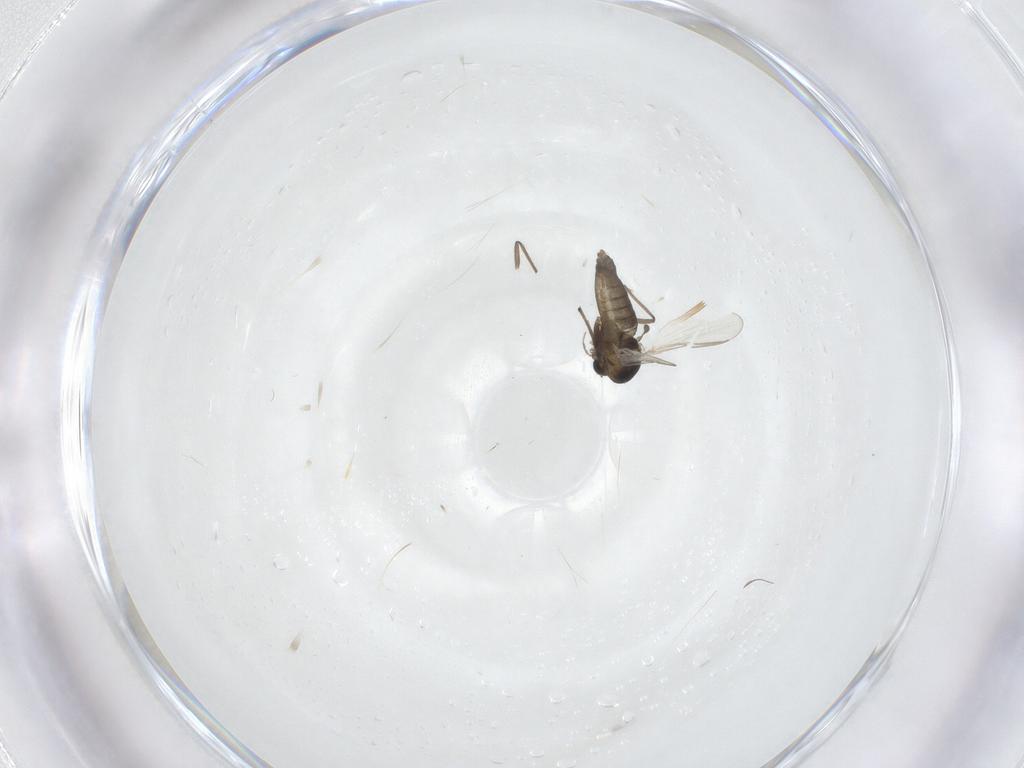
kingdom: Animalia
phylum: Arthropoda
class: Insecta
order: Diptera
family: Chironomidae
